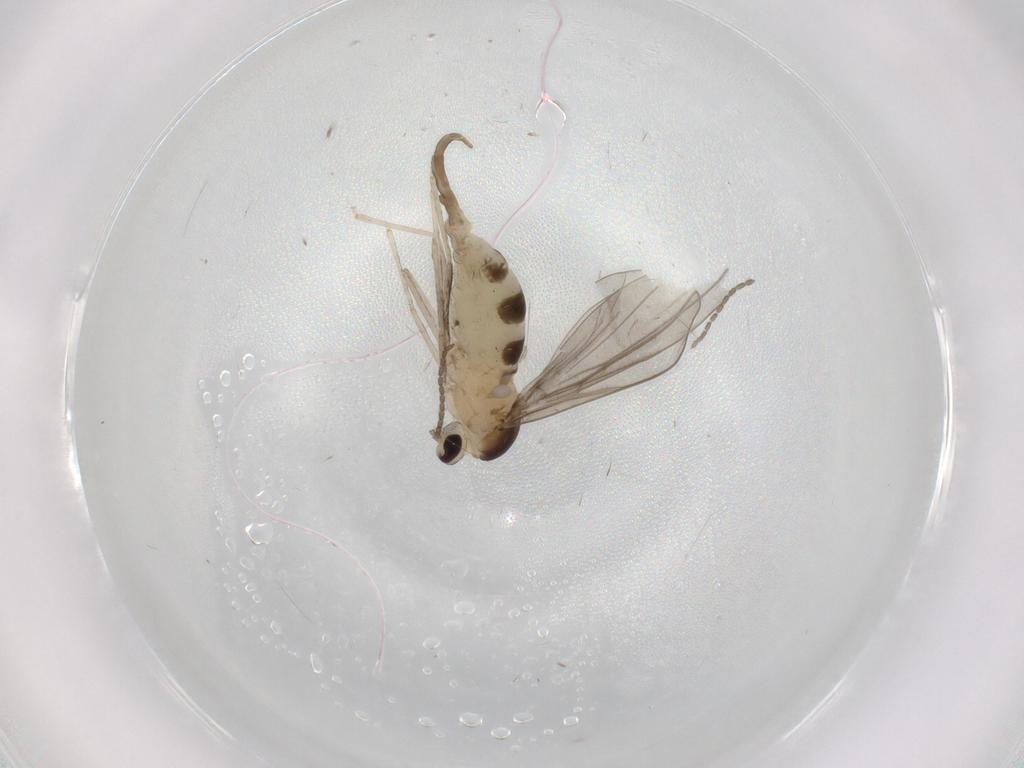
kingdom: Animalia
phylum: Arthropoda
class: Insecta
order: Diptera
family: Cecidomyiidae
